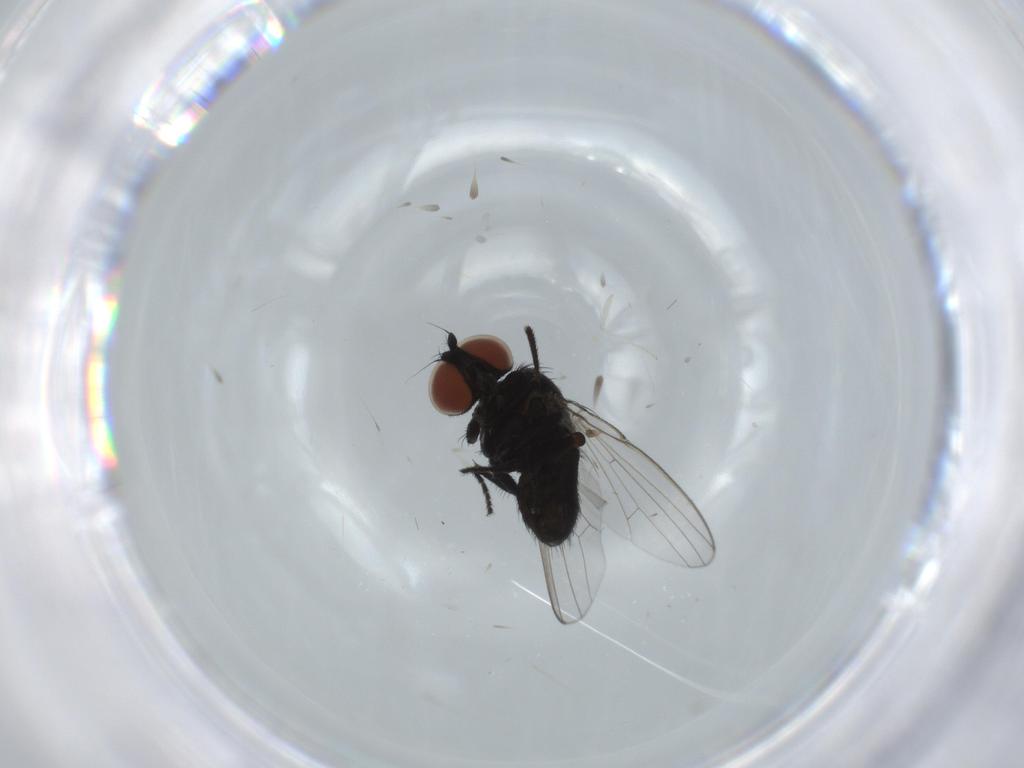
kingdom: Animalia
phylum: Arthropoda
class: Insecta
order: Diptera
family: Cecidomyiidae
